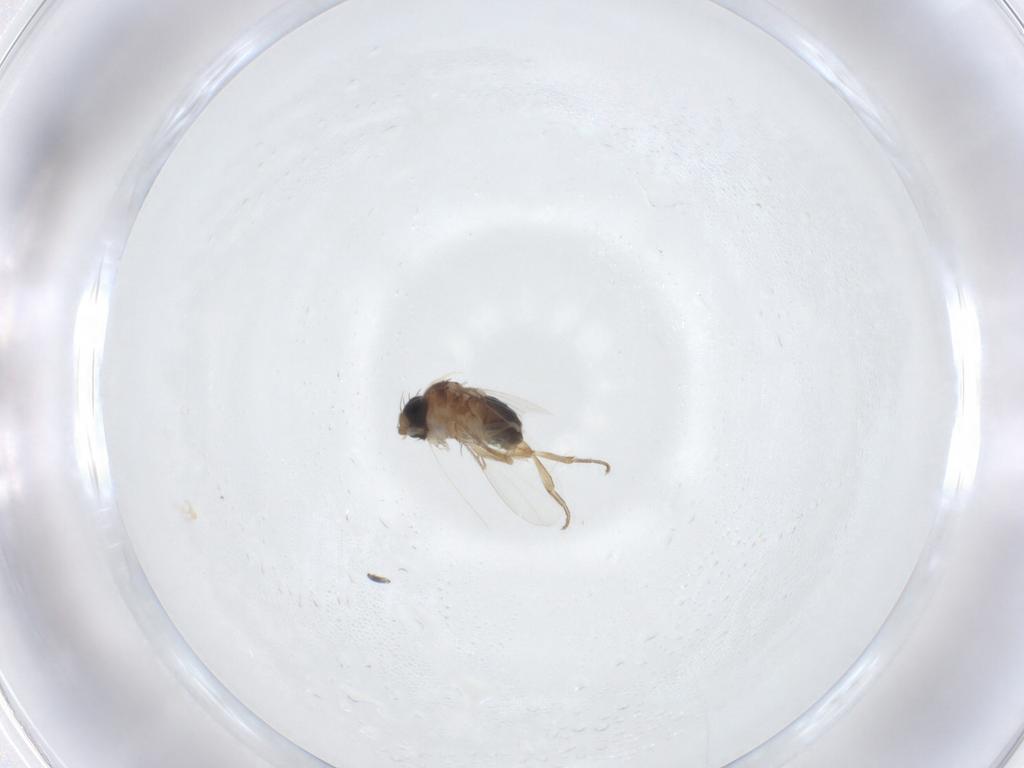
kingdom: Animalia
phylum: Arthropoda
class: Insecta
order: Diptera
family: Phoridae
